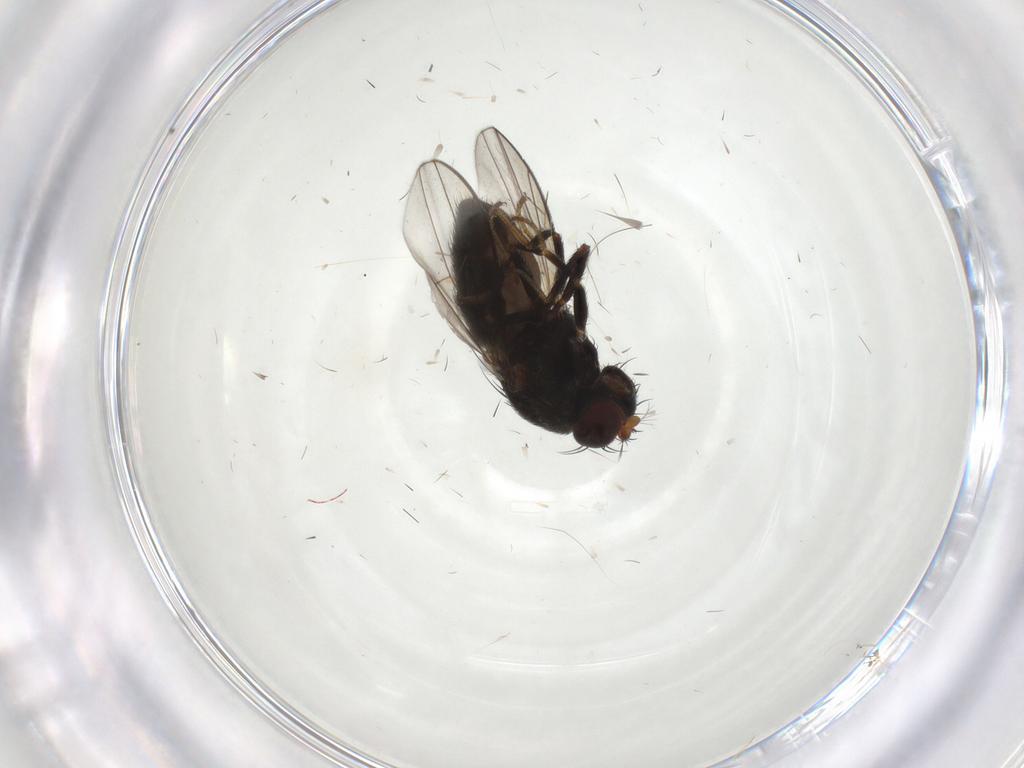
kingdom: Animalia
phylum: Arthropoda
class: Insecta
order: Diptera
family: Ephydridae
